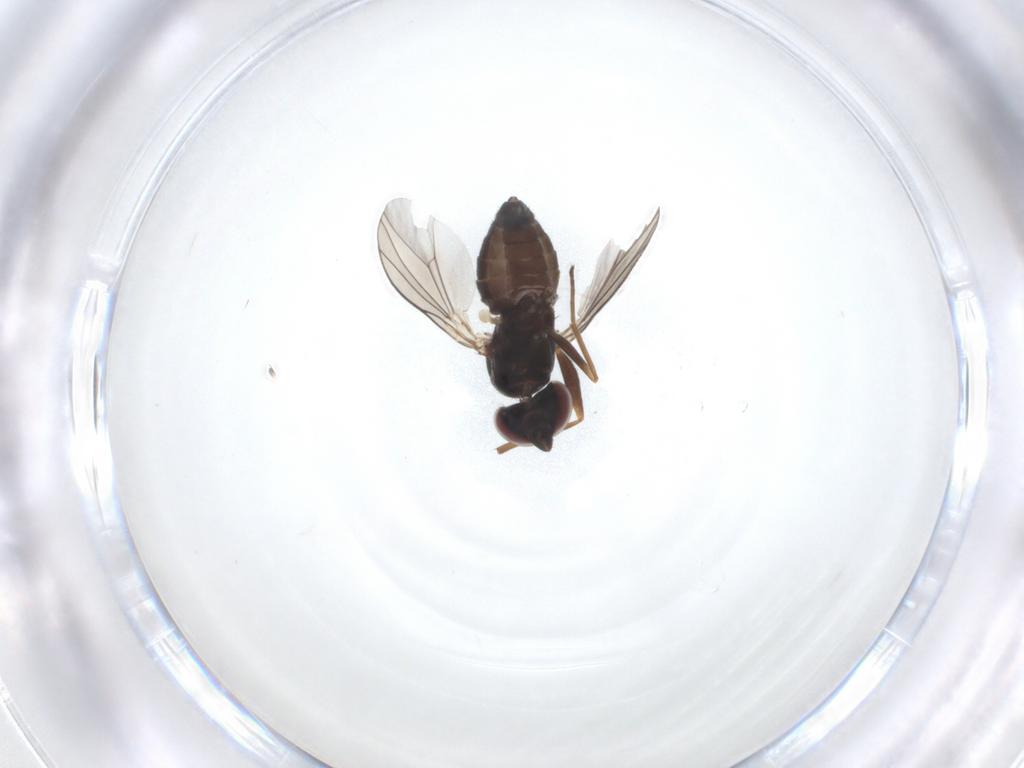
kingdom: Animalia
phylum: Arthropoda
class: Insecta
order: Diptera
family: Dolichopodidae
